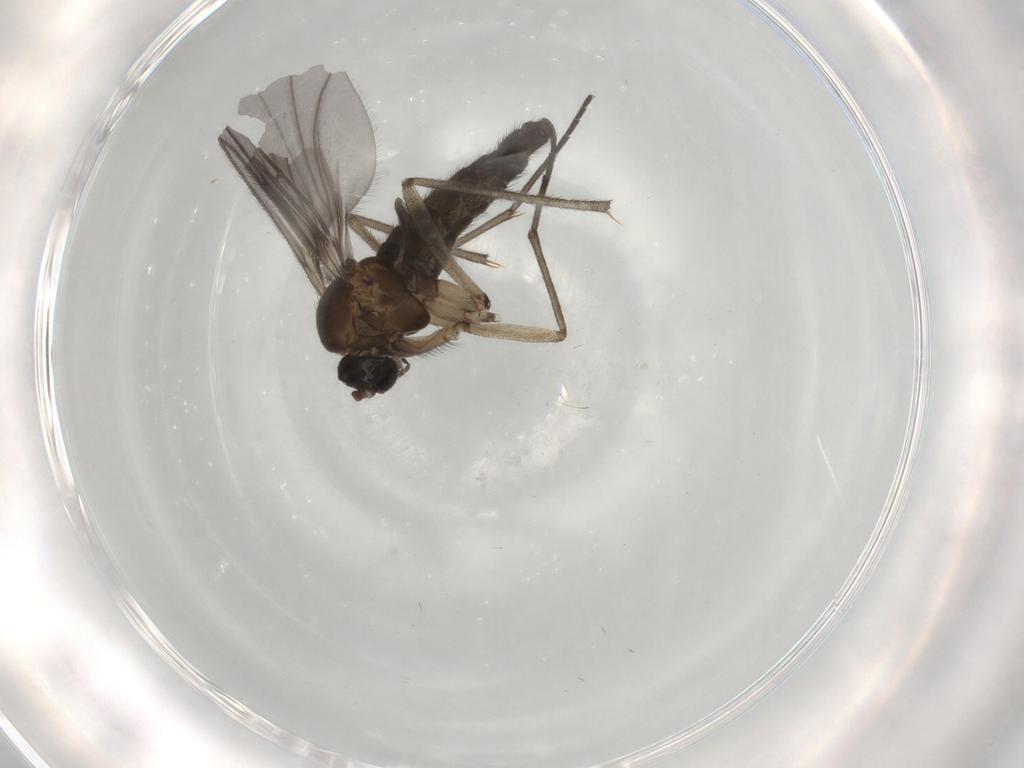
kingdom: Animalia
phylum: Arthropoda
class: Insecta
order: Diptera
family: Sciaridae
